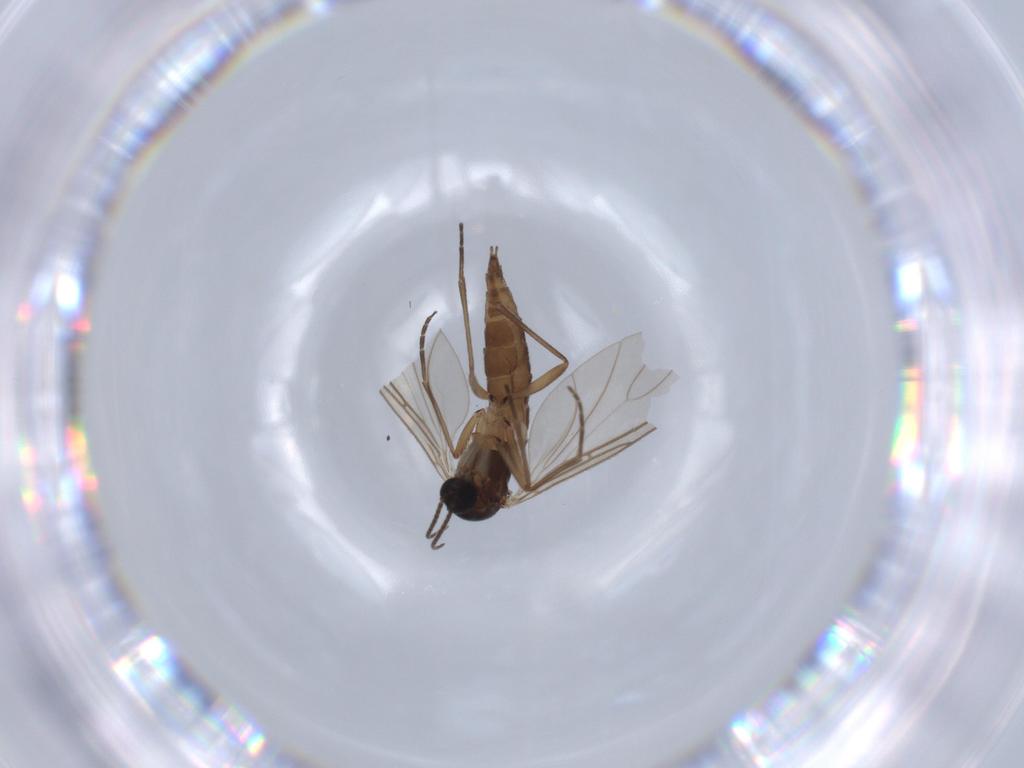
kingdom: Animalia
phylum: Arthropoda
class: Insecta
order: Diptera
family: Sciaridae
